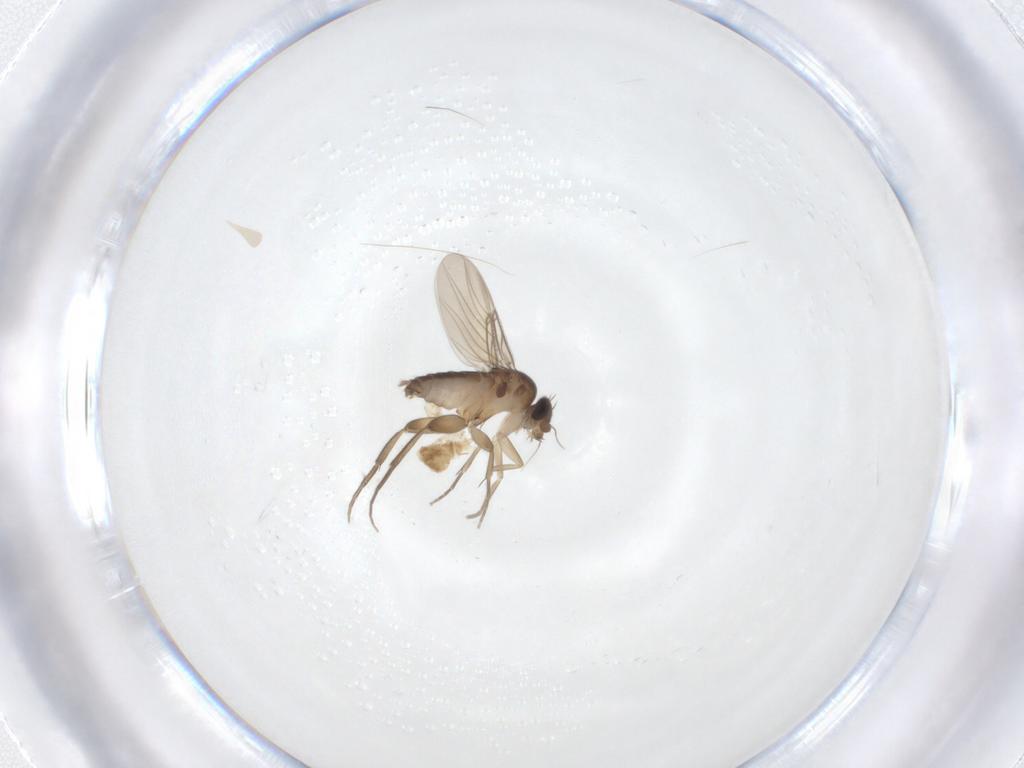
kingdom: Animalia
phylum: Arthropoda
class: Insecta
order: Diptera
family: Phoridae
